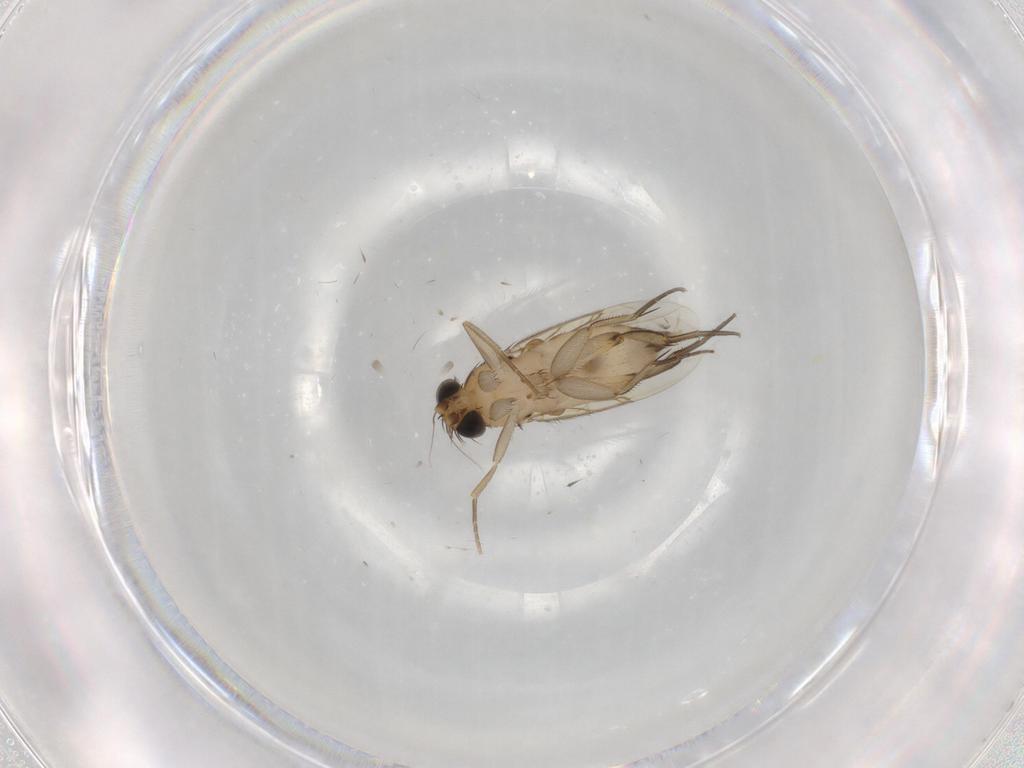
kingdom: Animalia
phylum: Arthropoda
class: Insecta
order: Diptera
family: Phoridae
